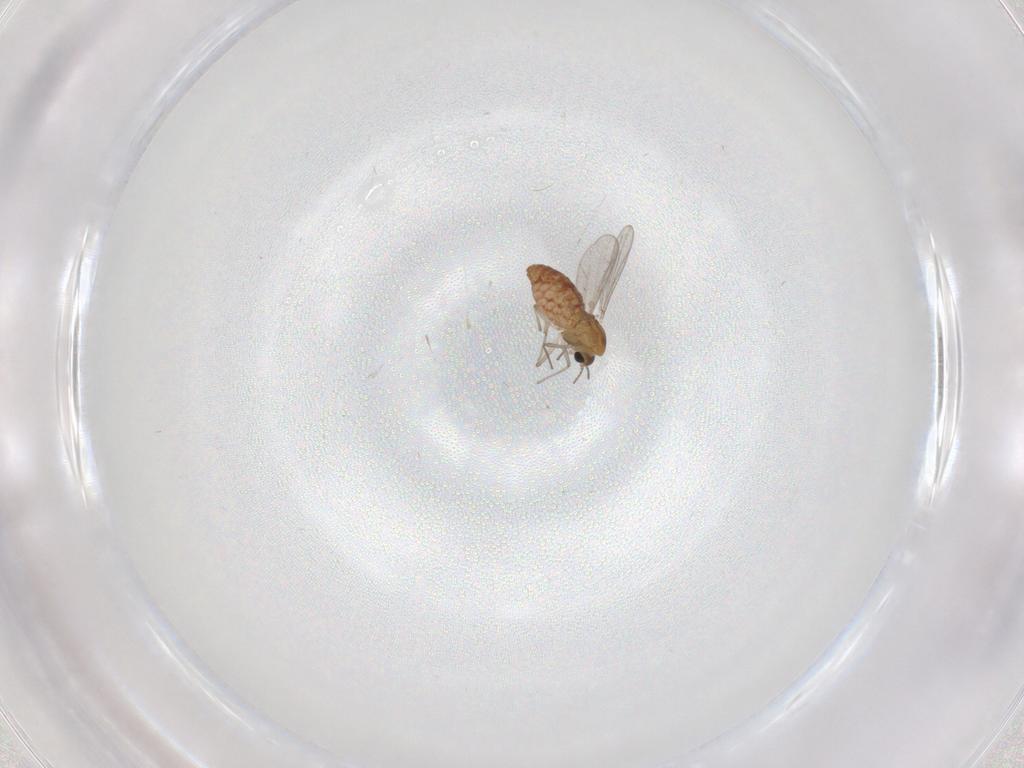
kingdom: Animalia
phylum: Arthropoda
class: Insecta
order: Diptera
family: Chironomidae
